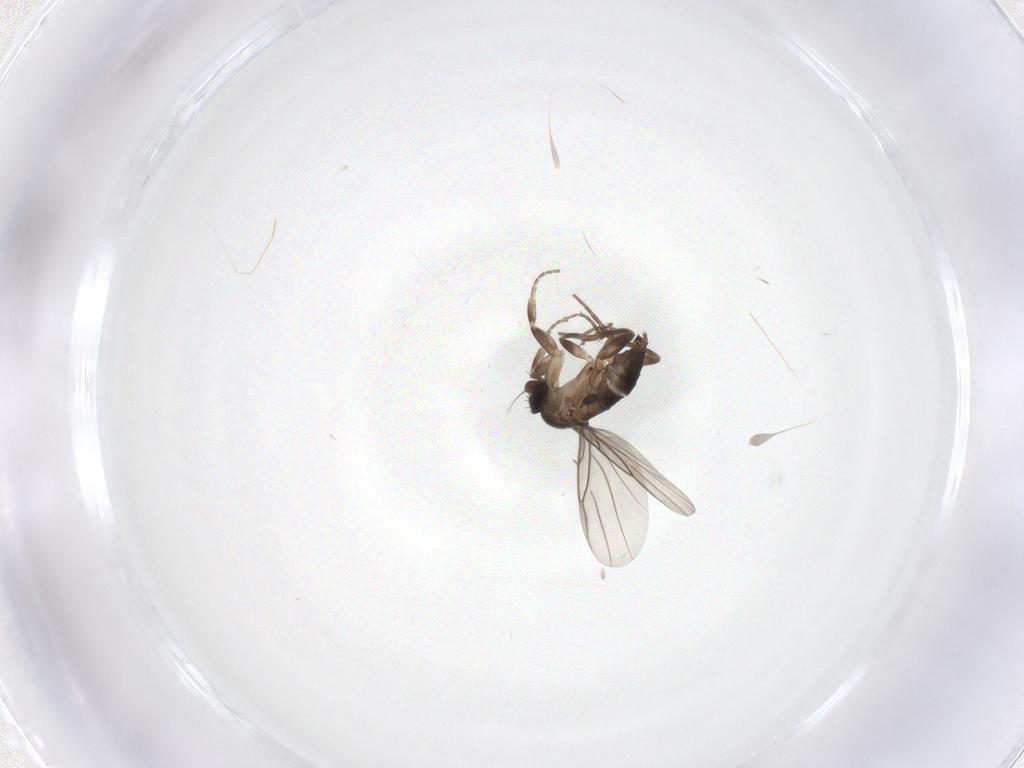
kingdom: Animalia
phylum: Arthropoda
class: Insecta
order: Diptera
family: Phoridae
